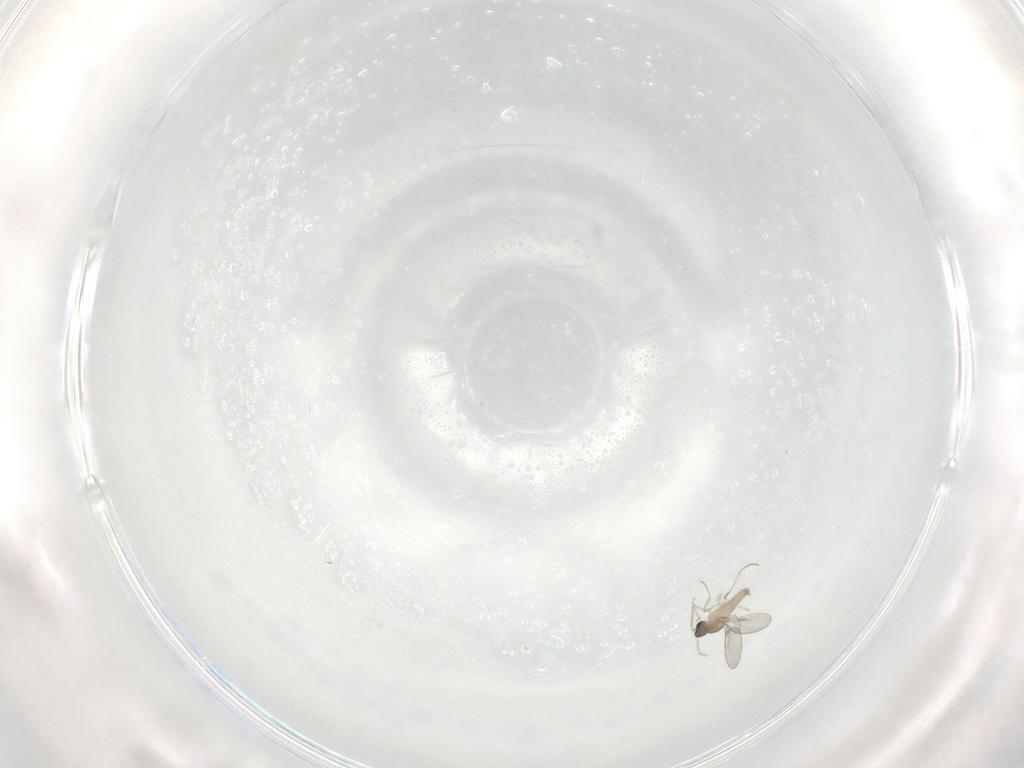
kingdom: Animalia
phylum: Arthropoda
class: Insecta
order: Diptera
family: Cecidomyiidae
